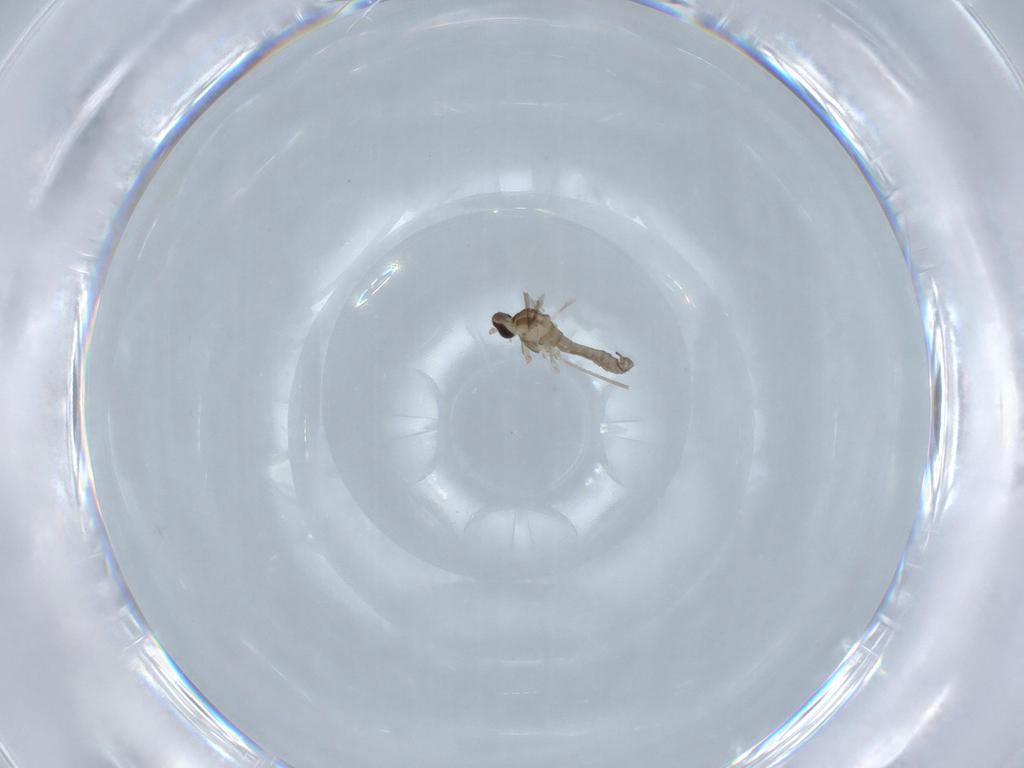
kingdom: Animalia
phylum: Arthropoda
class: Insecta
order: Diptera
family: Cecidomyiidae
